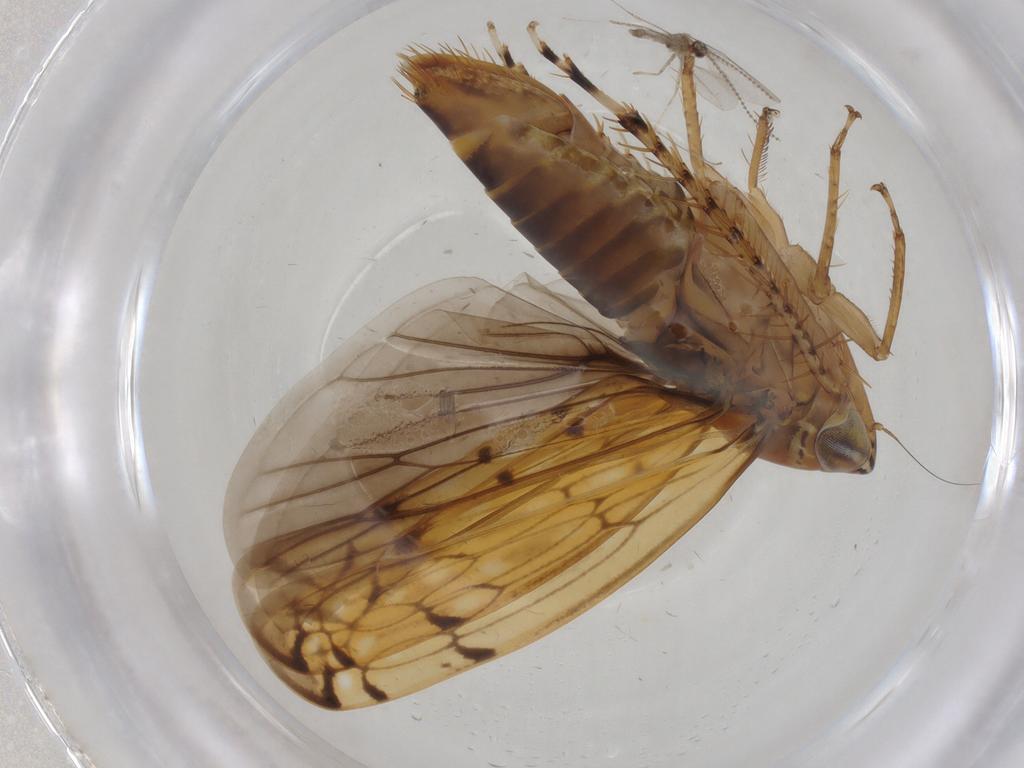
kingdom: Animalia
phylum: Arthropoda
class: Insecta
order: Diptera
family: Cecidomyiidae
